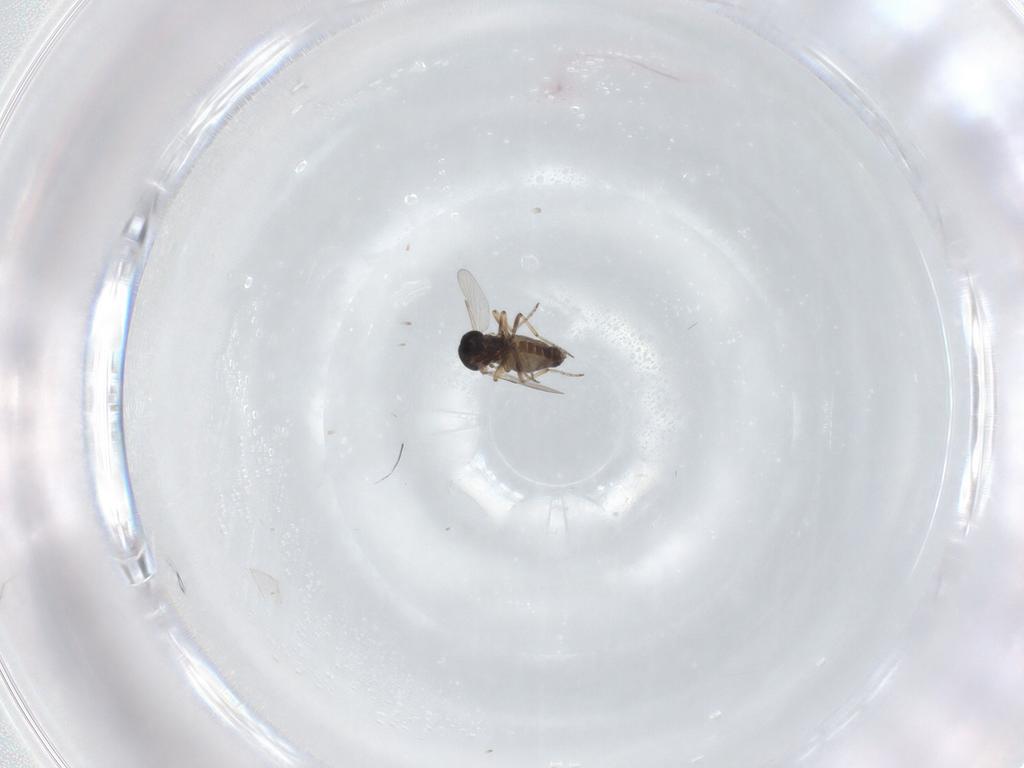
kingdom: Animalia
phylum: Arthropoda
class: Insecta
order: Diptera
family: Ceratopogonidae
